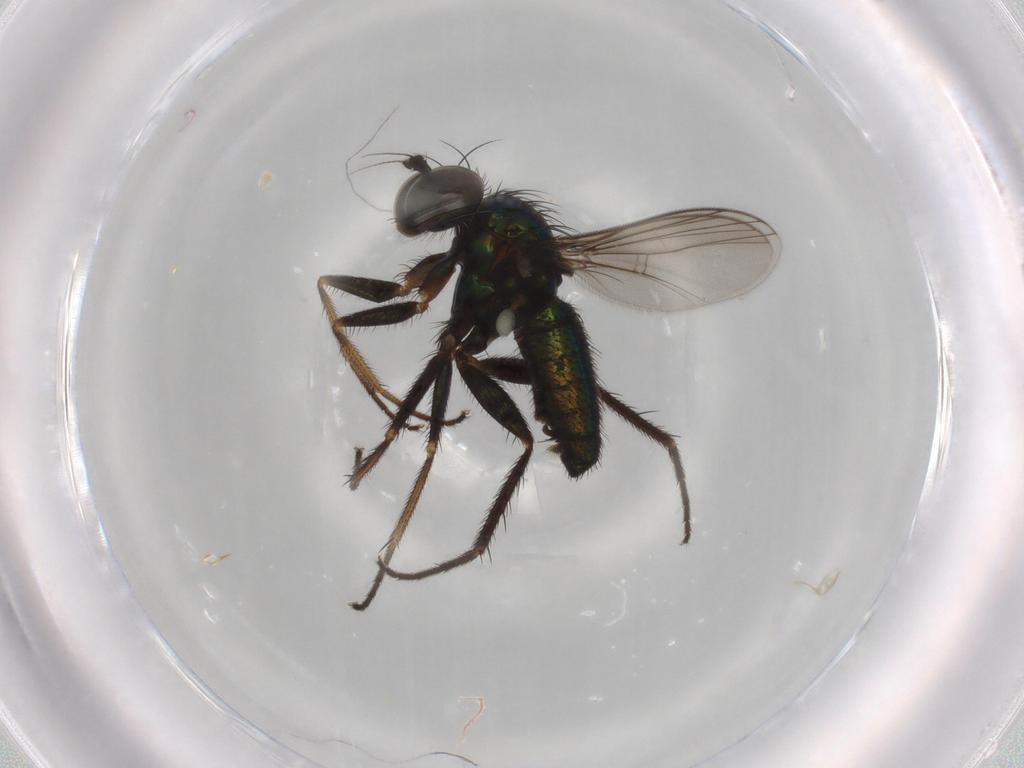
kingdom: Animalia
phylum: Arthropoda
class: Insecta
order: Diptera
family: Dolichopodidae
